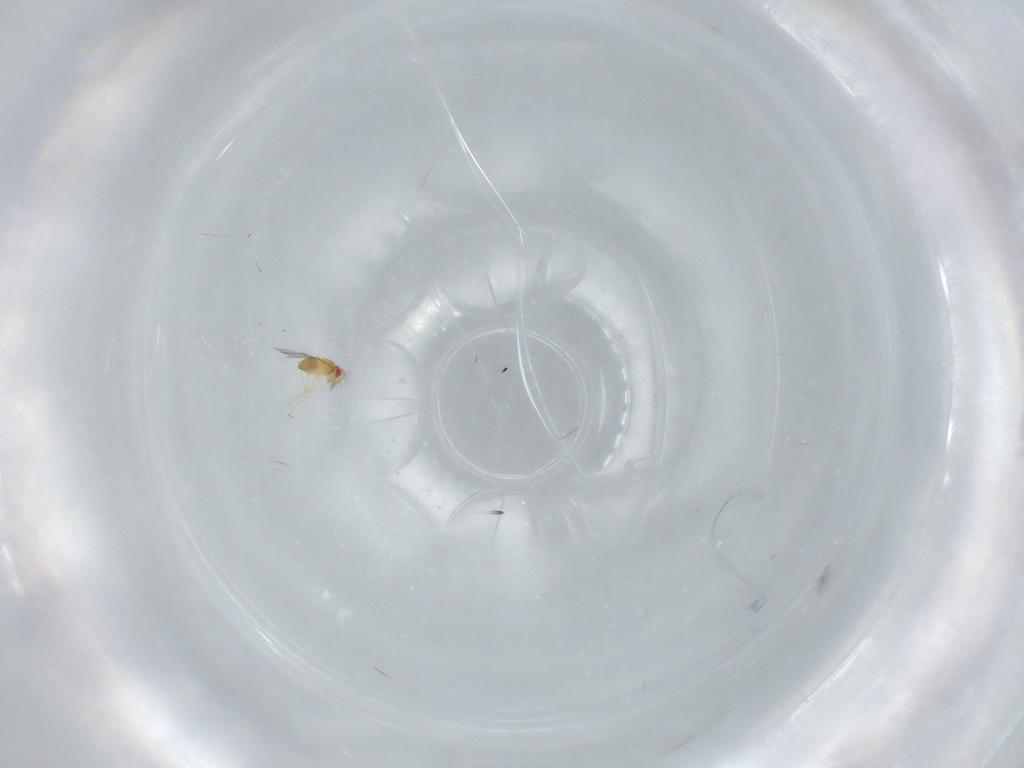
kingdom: Animalia
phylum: Arthropoda
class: Insecta
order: Hymenoptera
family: Trichogrammatidae
